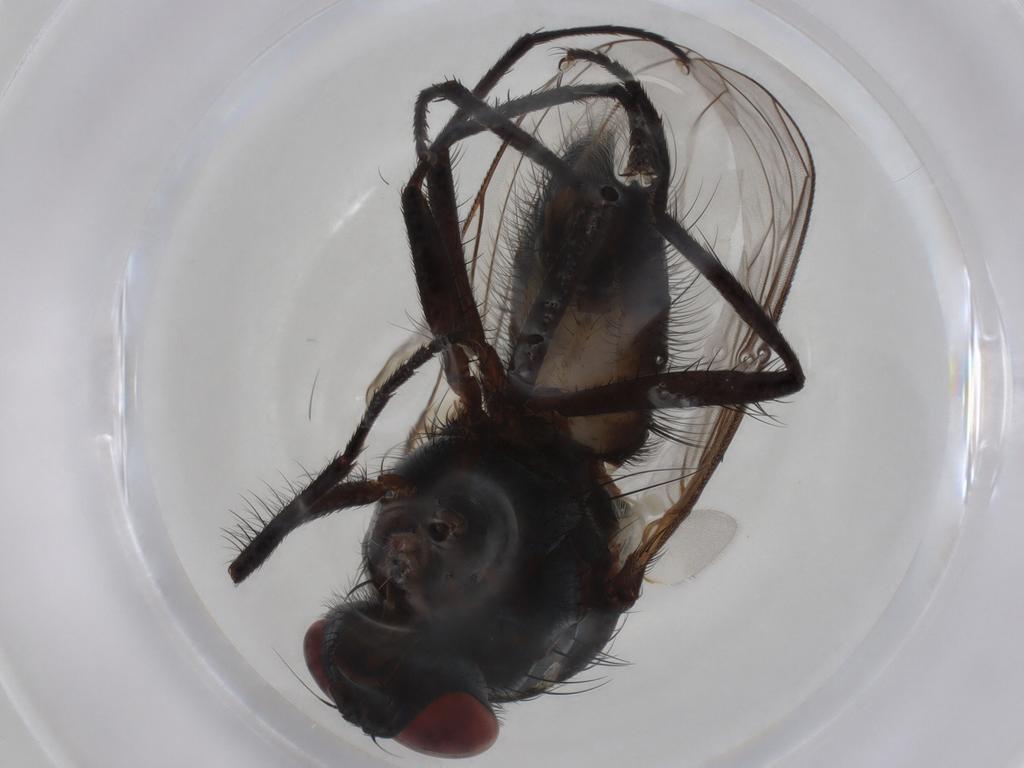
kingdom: Animalia
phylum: Arthropoda
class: Insecta
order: Diptera
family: Anthomyiidae
